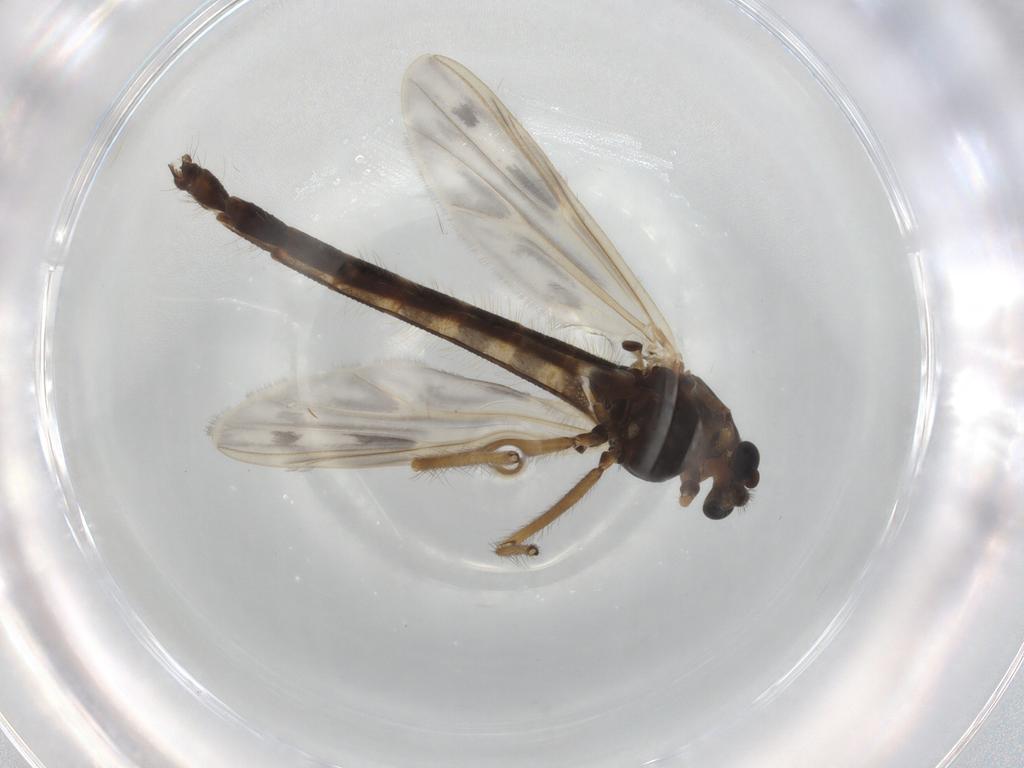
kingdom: Animalia
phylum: Arthropoda
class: Insecta
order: Diptera
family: Chironomidae
